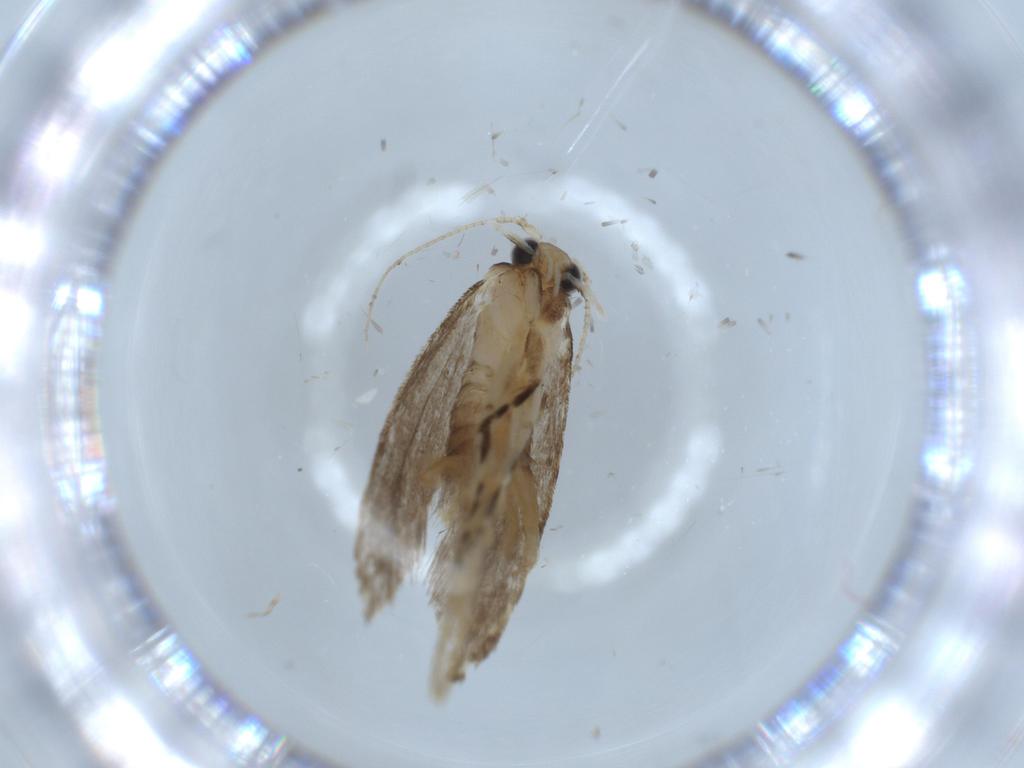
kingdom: Animalia
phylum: Arthropoda
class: Insecta
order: Lepidoptera
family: Tineidae
